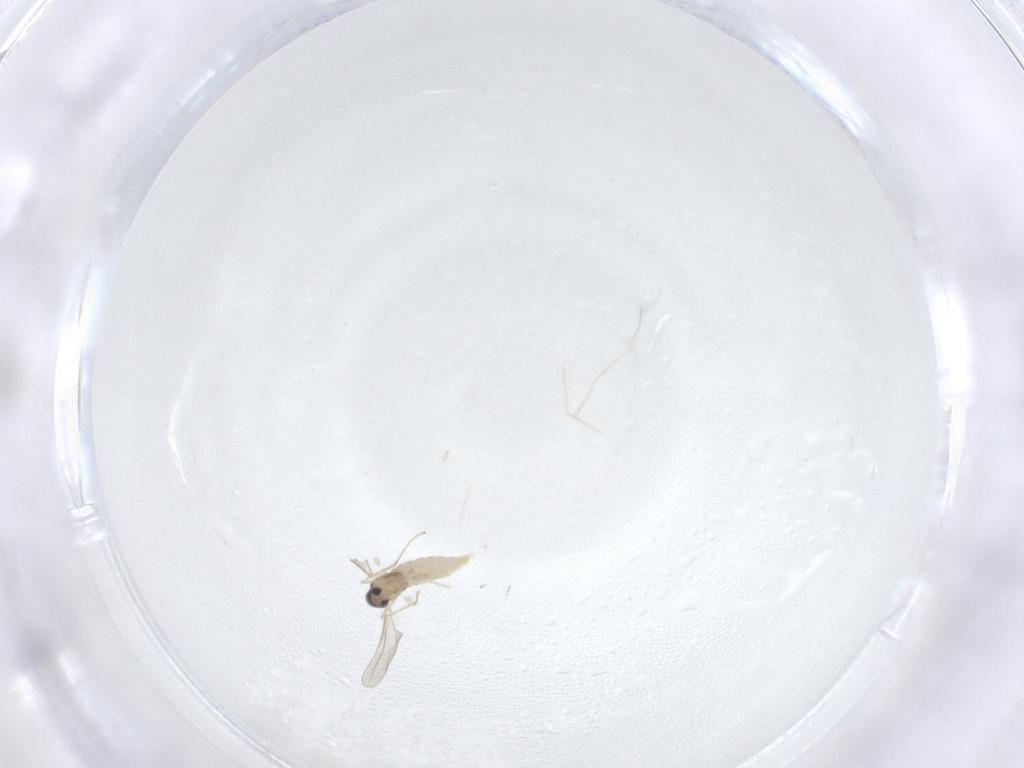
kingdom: Animalia
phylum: Arthropoda
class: Insecta
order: Diptera
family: Cecidomyiidae
